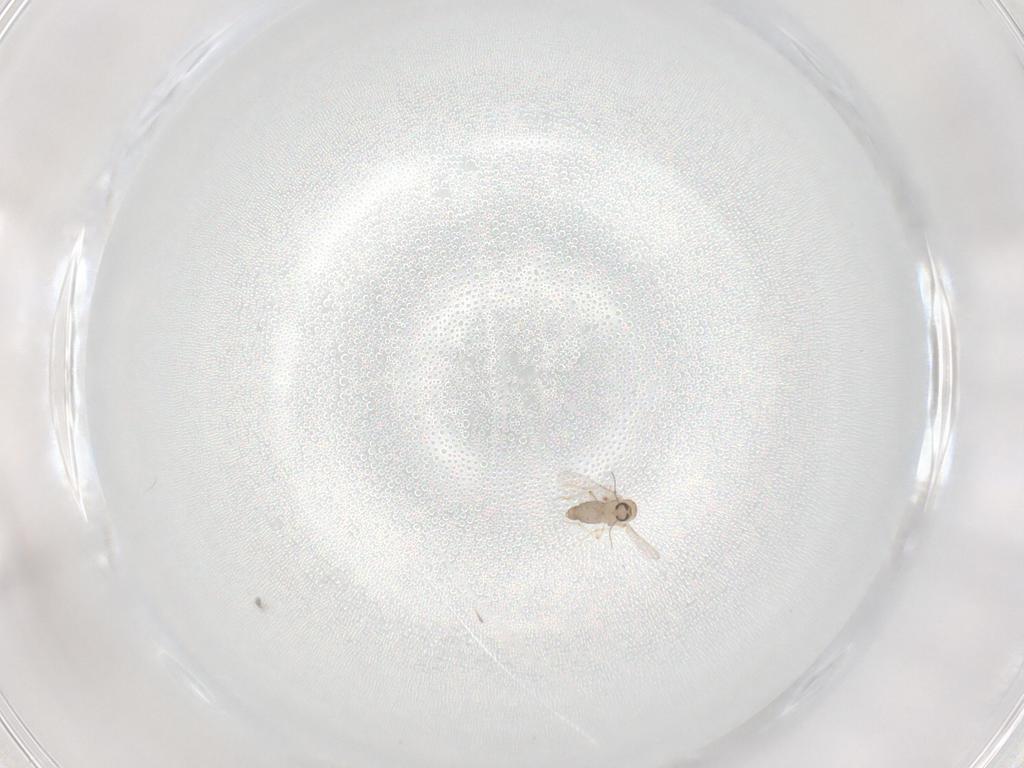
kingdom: Animalia
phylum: Arthropoda
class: Insecta
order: Diptera
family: Ceratopogonidae
